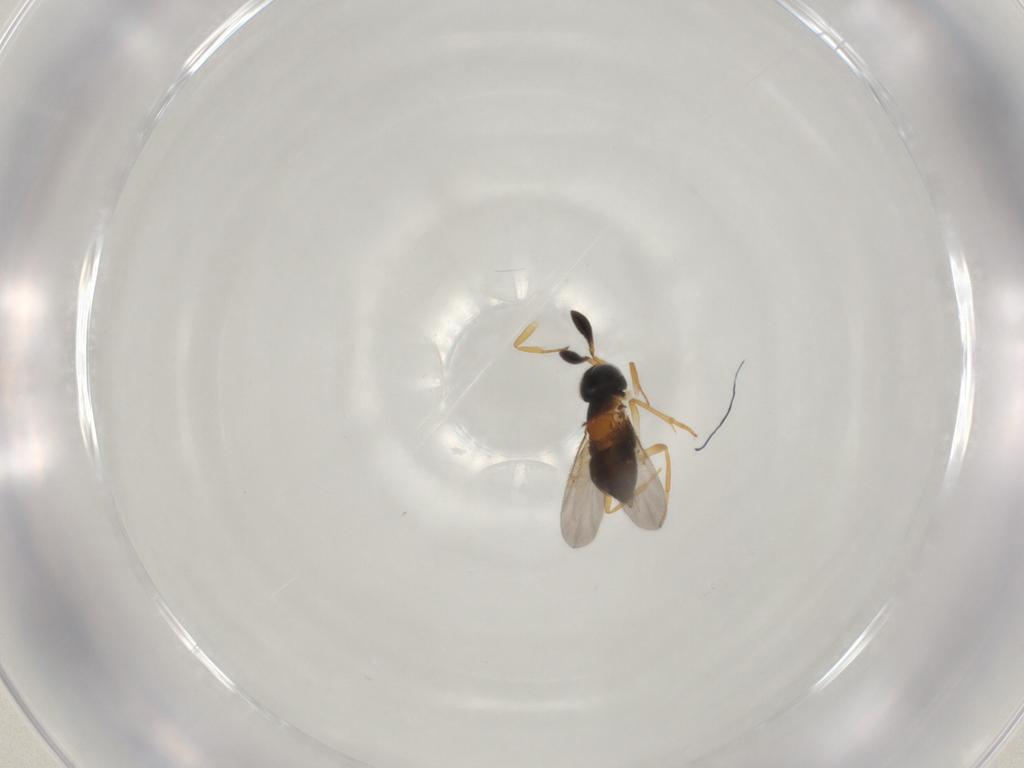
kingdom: Animalia
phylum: Arthropoda
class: Insecta
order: Hymenoptera
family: Encyrtidae
